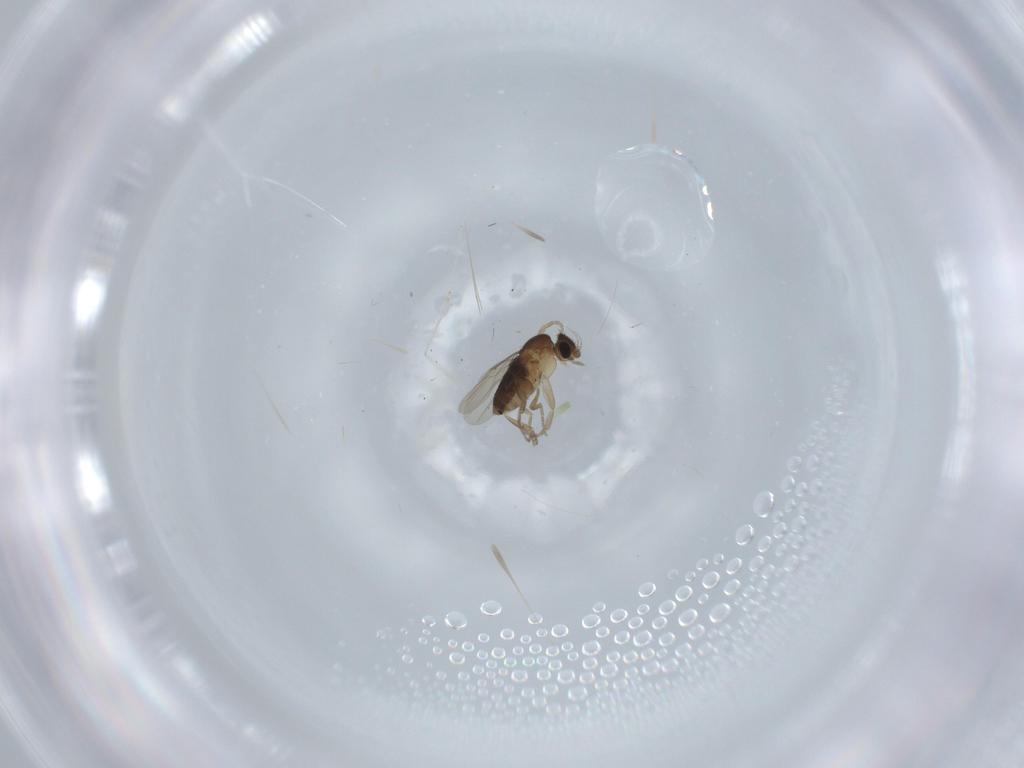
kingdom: Animalia
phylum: Arthropoda
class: Insecta
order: Diptera
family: Phoridae
